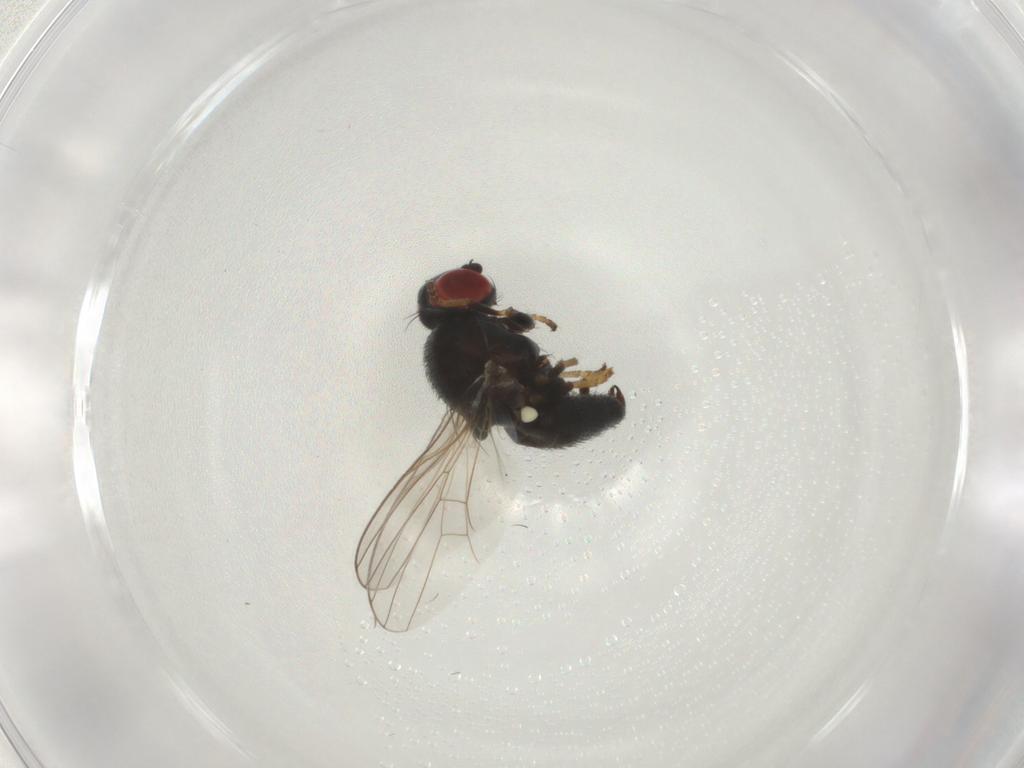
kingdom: Animalia
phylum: Arthropoda
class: Insecta
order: Diptera
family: Chamaemyiidae
